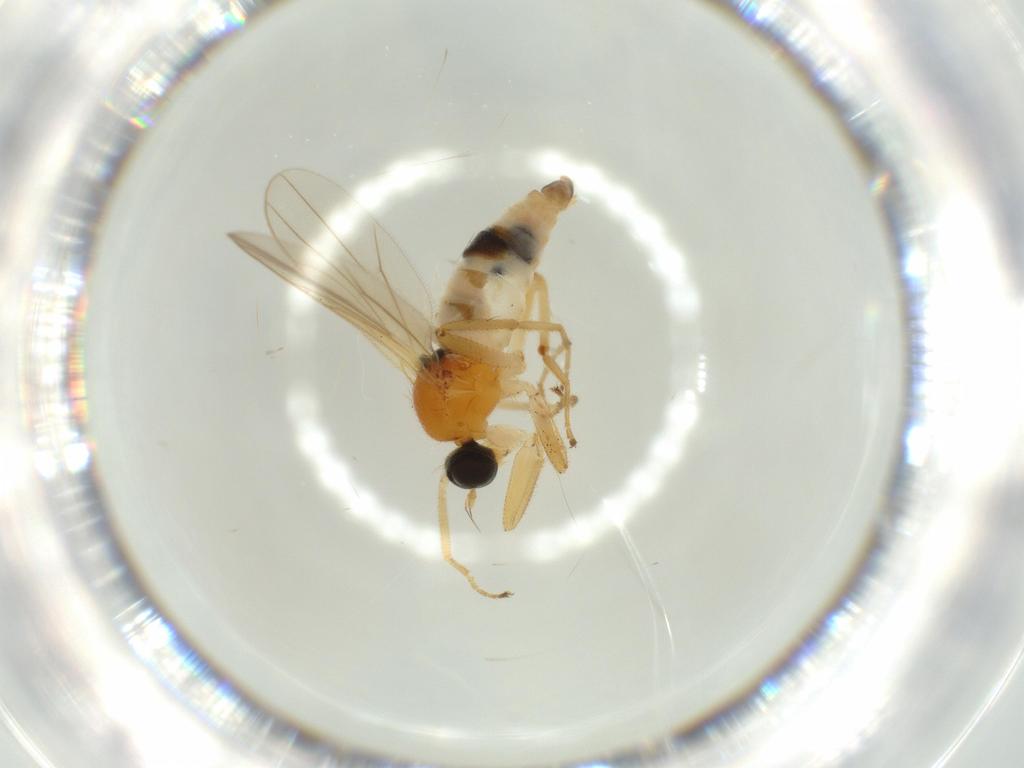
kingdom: Animalia
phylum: Arthropoda
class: Insecta
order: Diptera
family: Hybotidae
